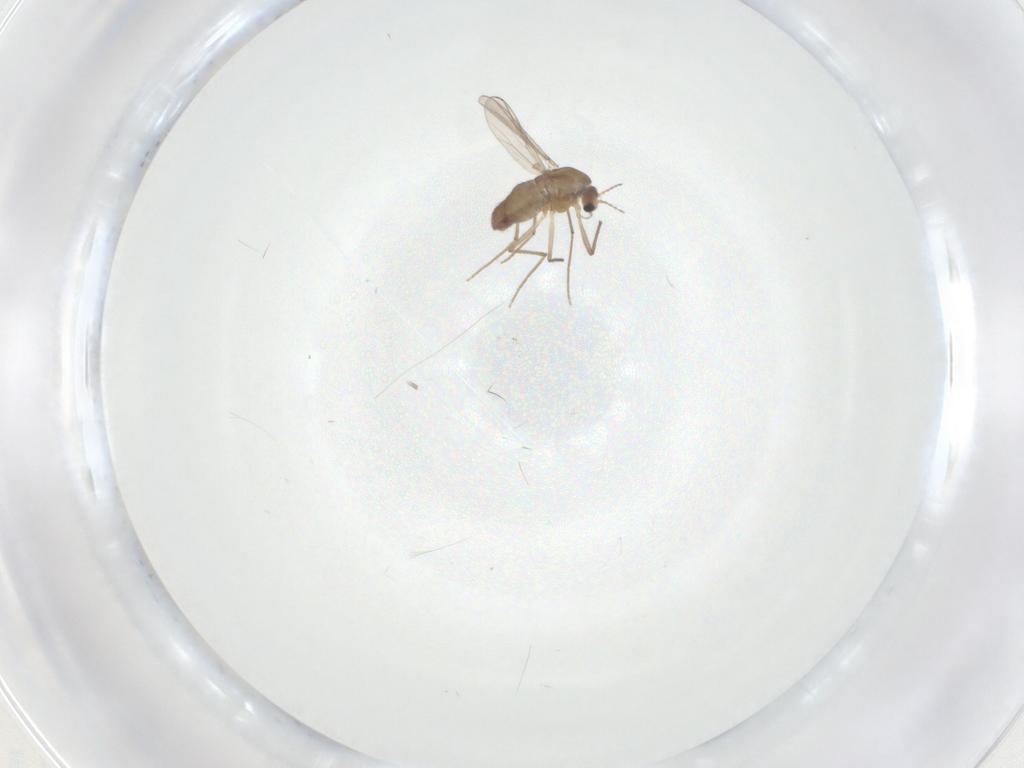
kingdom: Animalia
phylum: Arthropoda
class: Insecta
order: Diptera
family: Chironomidae
